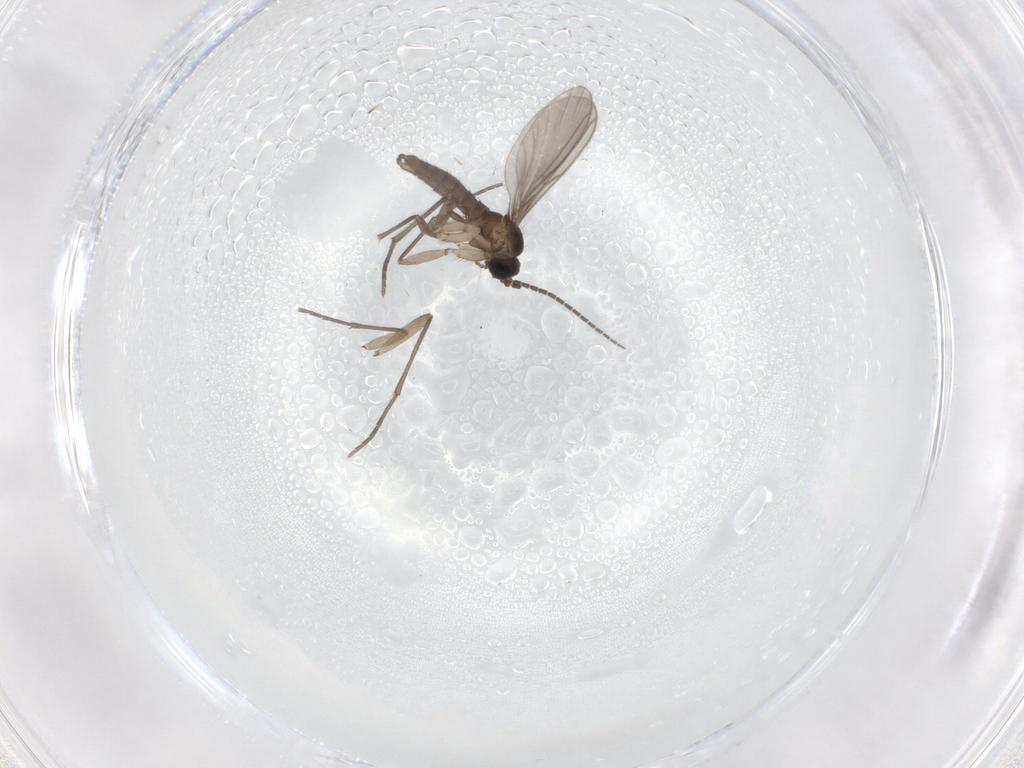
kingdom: Animalia
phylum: Arthropoda
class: Insecta
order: Diptera
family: Sciaridae
